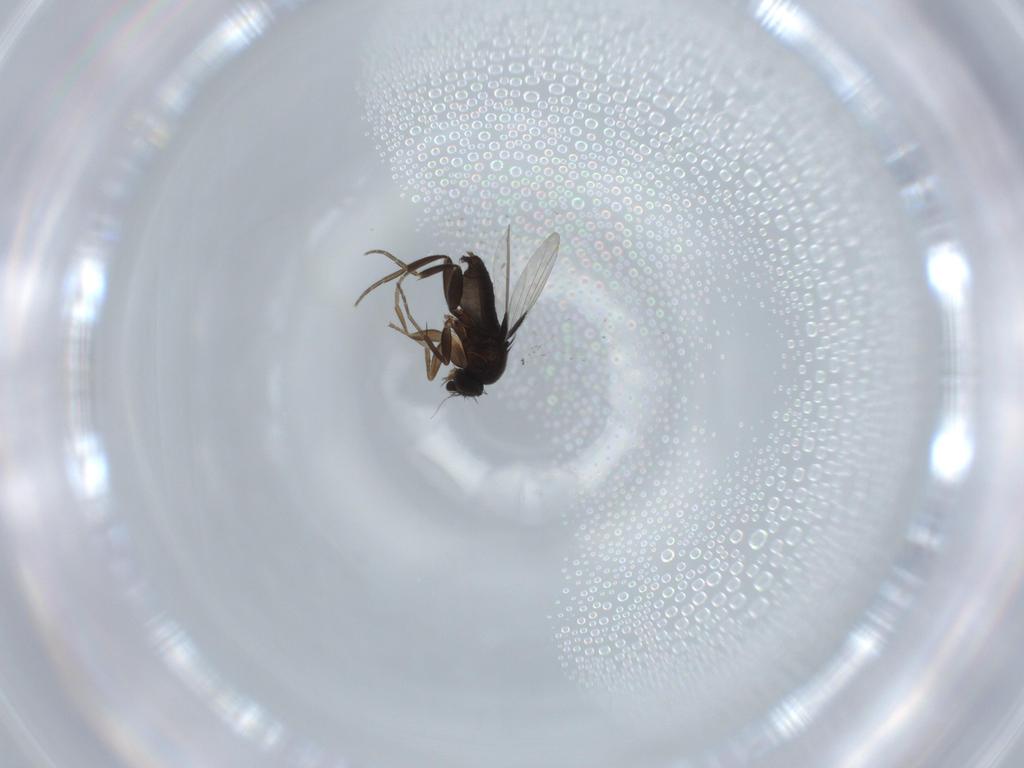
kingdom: Animalia
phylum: Arthropoda
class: Insecta
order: Diptera
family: Phoridae
